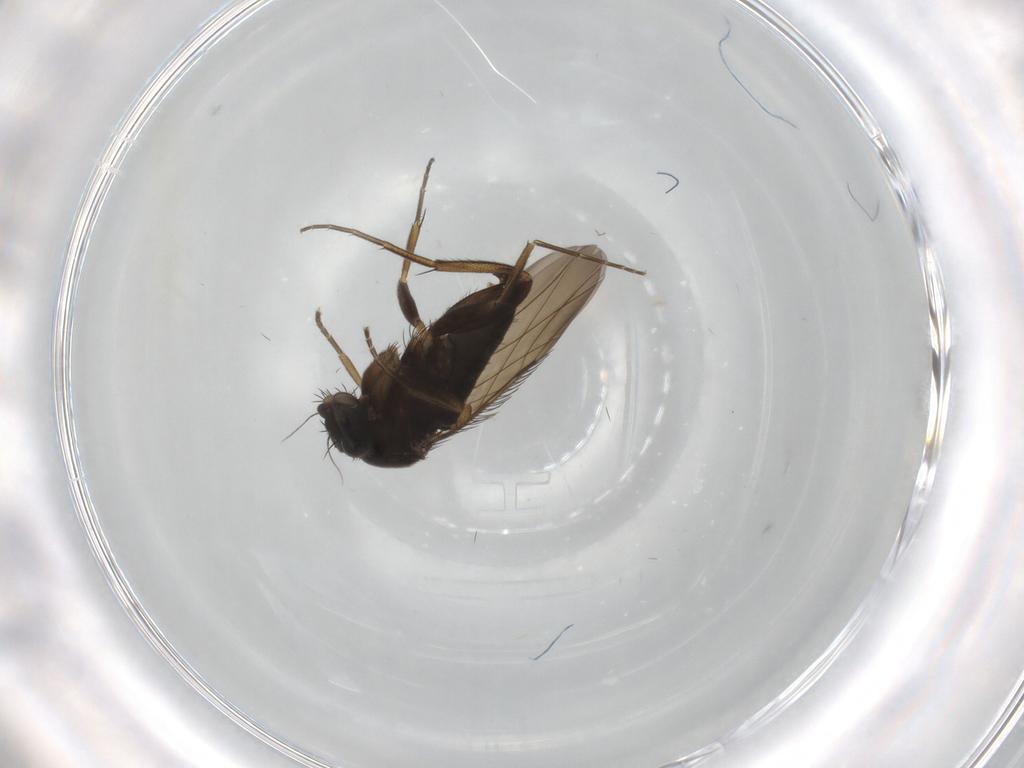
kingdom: Animalia
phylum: Arthropoda
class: Insecta
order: Diptera
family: Phoridae
